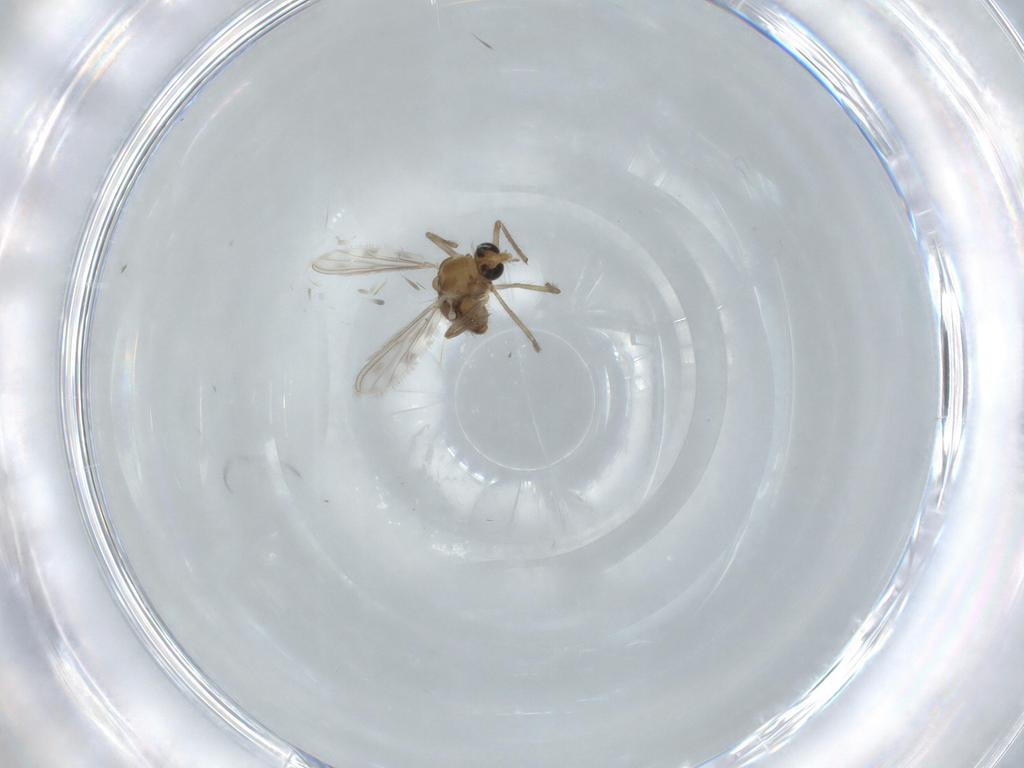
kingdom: Animalia
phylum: Arthropoda
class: Insecta
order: Diptera
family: Chironomidae
